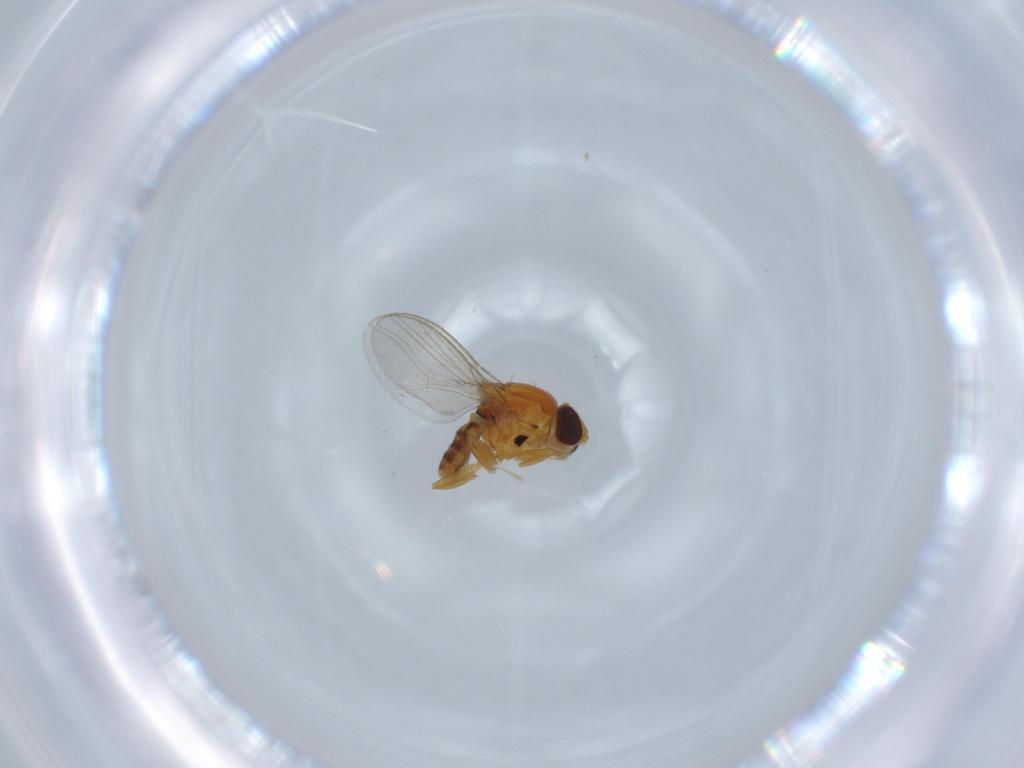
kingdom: Animalia
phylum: Arthropoda
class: Insecta
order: Diptera
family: Chloropidae
